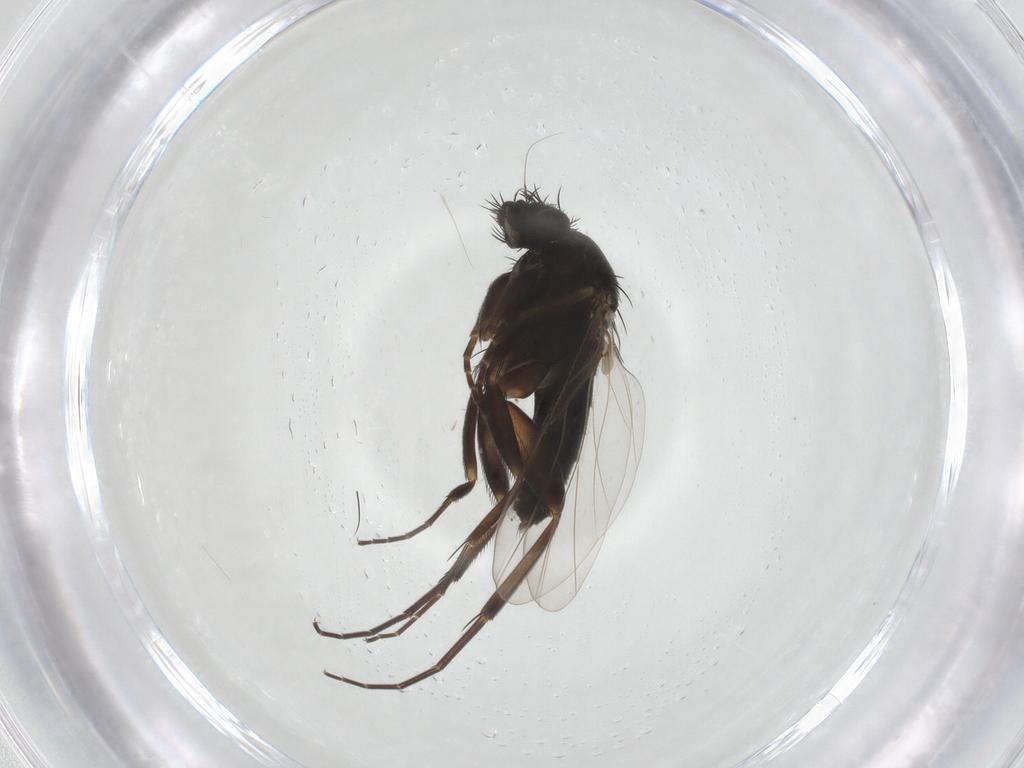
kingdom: Animalia
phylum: Arthropoda
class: Insecta
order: Diptera
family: Phoridae
